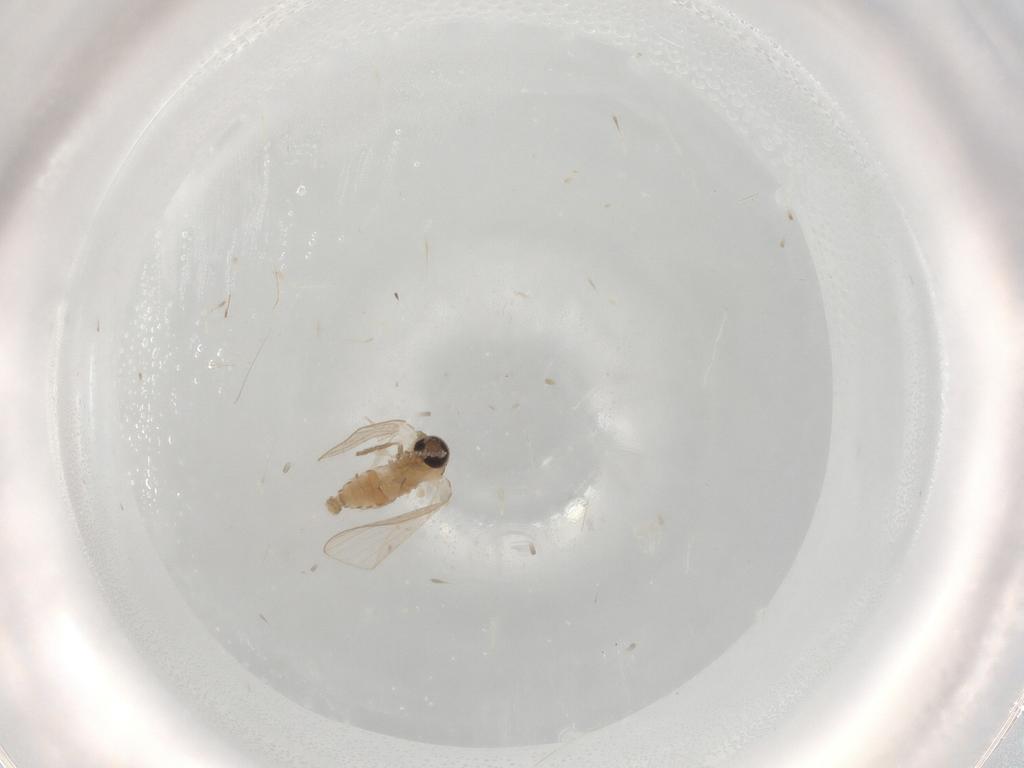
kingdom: Animalia
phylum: Arthropoda
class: Insecta
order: Diptera
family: Psychodidae
